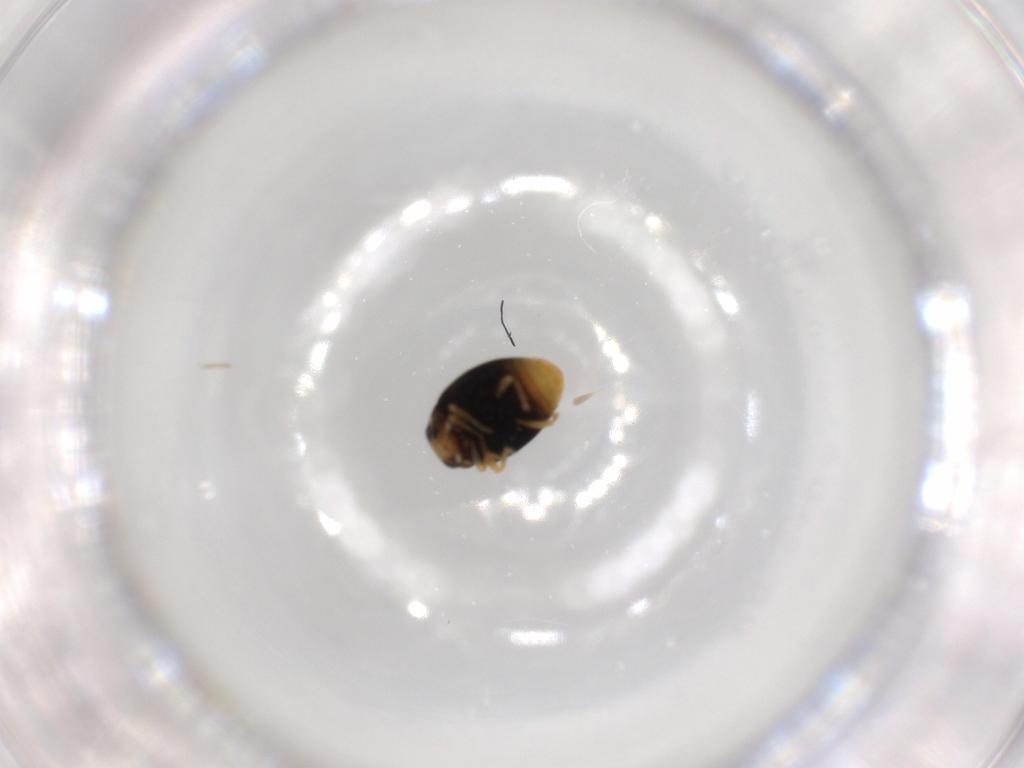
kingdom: Animalia
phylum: Arthropoda
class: Insecta
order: Coleoptera
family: Coccinellidae
